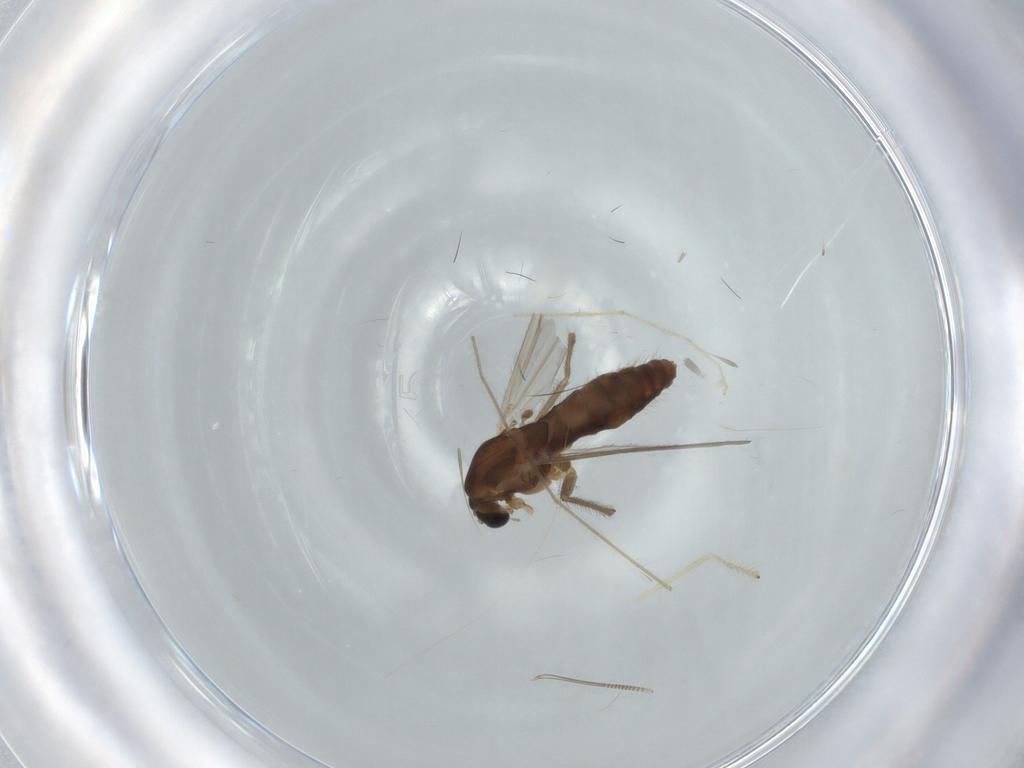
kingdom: Animalia
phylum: Arthropoda
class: Insecta
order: Diptera
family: Chironomidae
